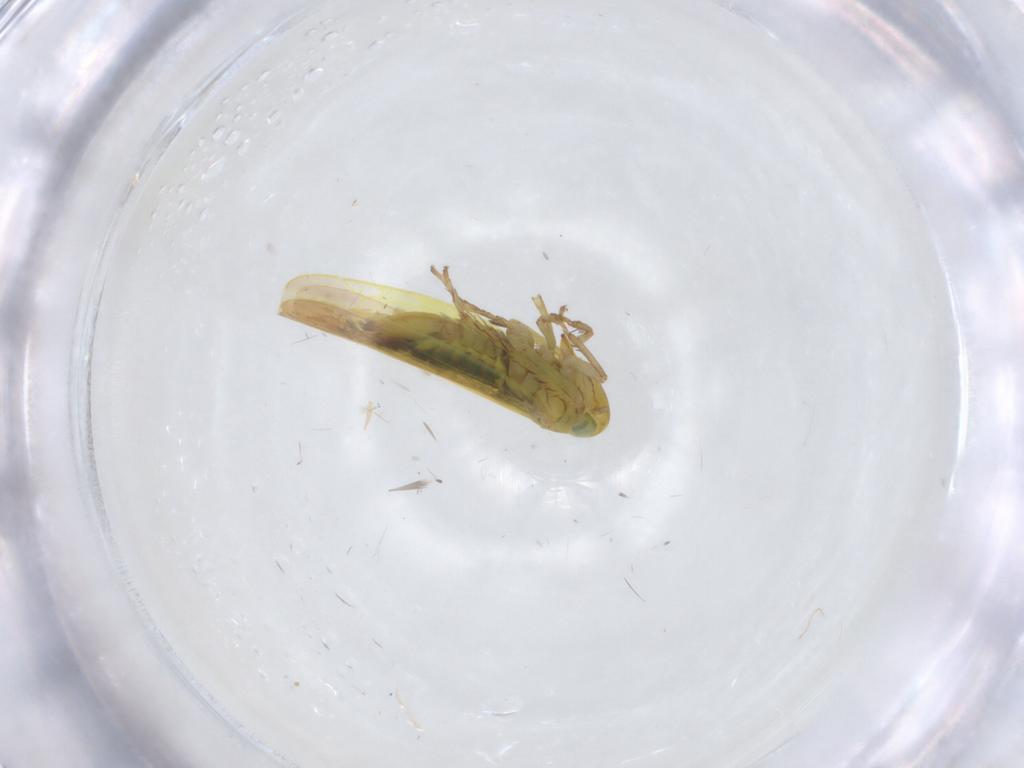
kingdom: Animalia
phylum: Arthropoda
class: Insecta
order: Hemiptera
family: Cicadellidae
